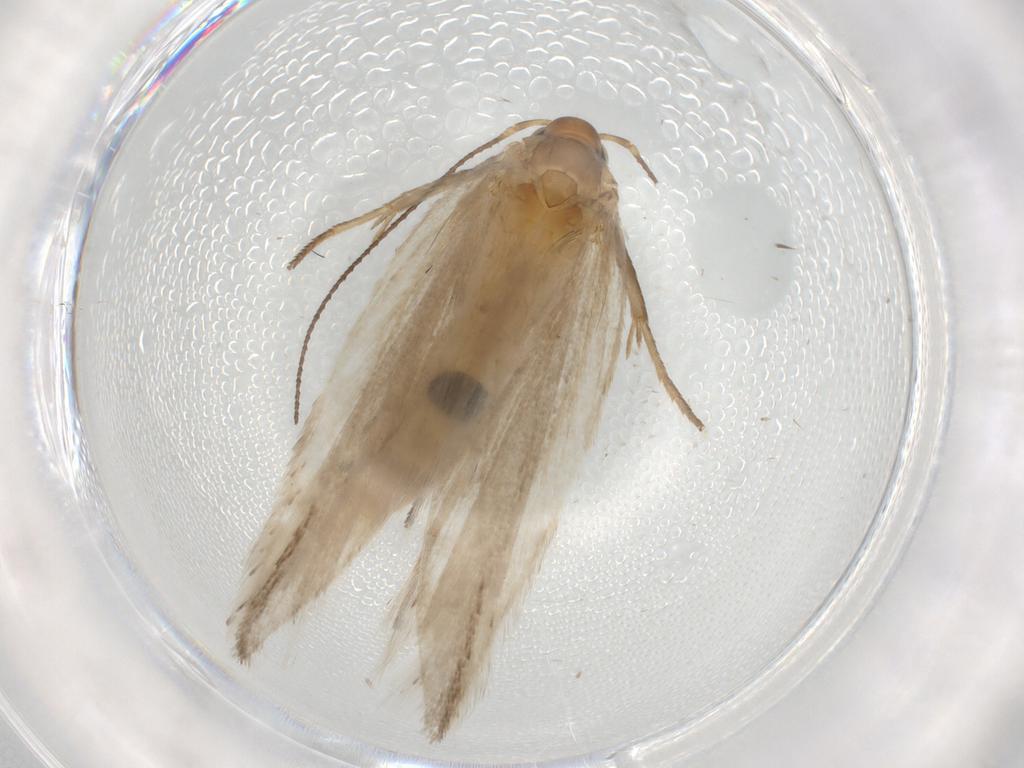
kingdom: Animalia
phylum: Arthropoda
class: Insecta
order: Lepidoptera
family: Gelechiidae
